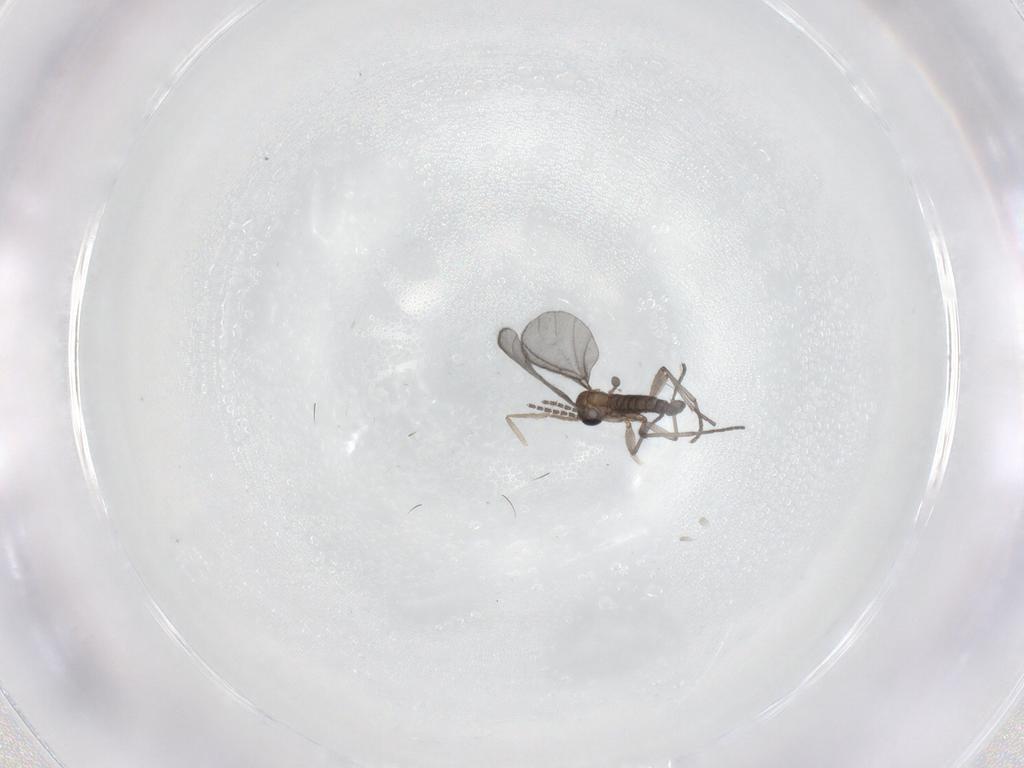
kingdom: Animalia
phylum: Arthropoda
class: Insecta
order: Diptera
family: Sciaridae
